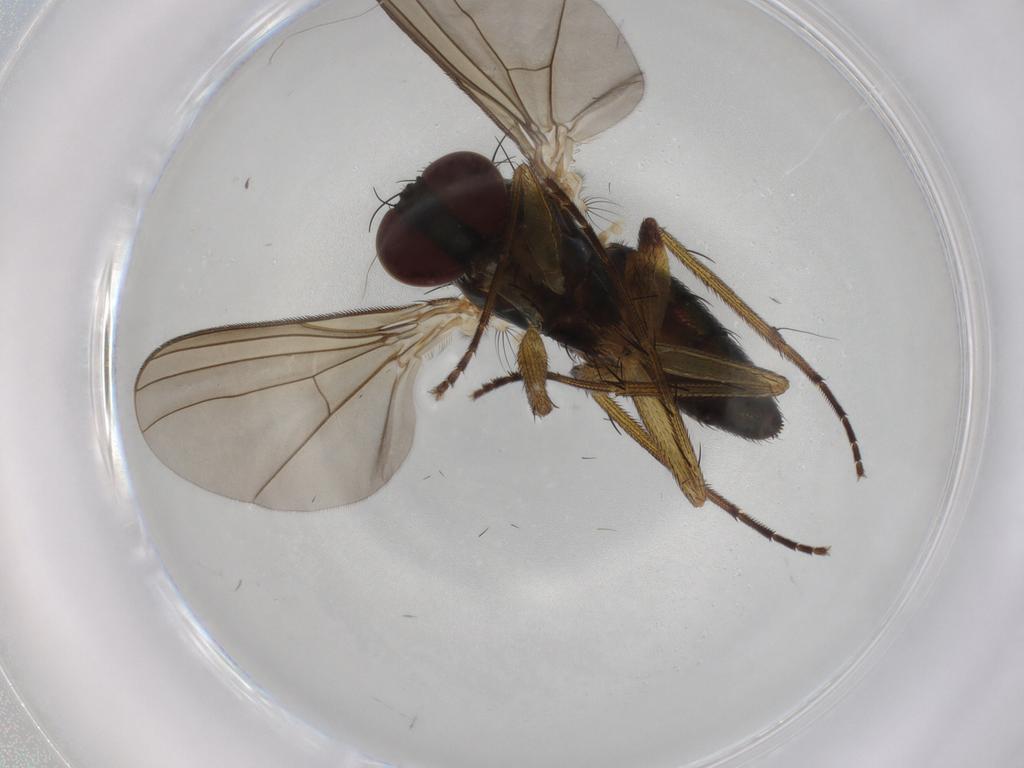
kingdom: Animalia
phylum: Arthropoda
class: Insecta
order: Diptera
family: Dolichopodidae
